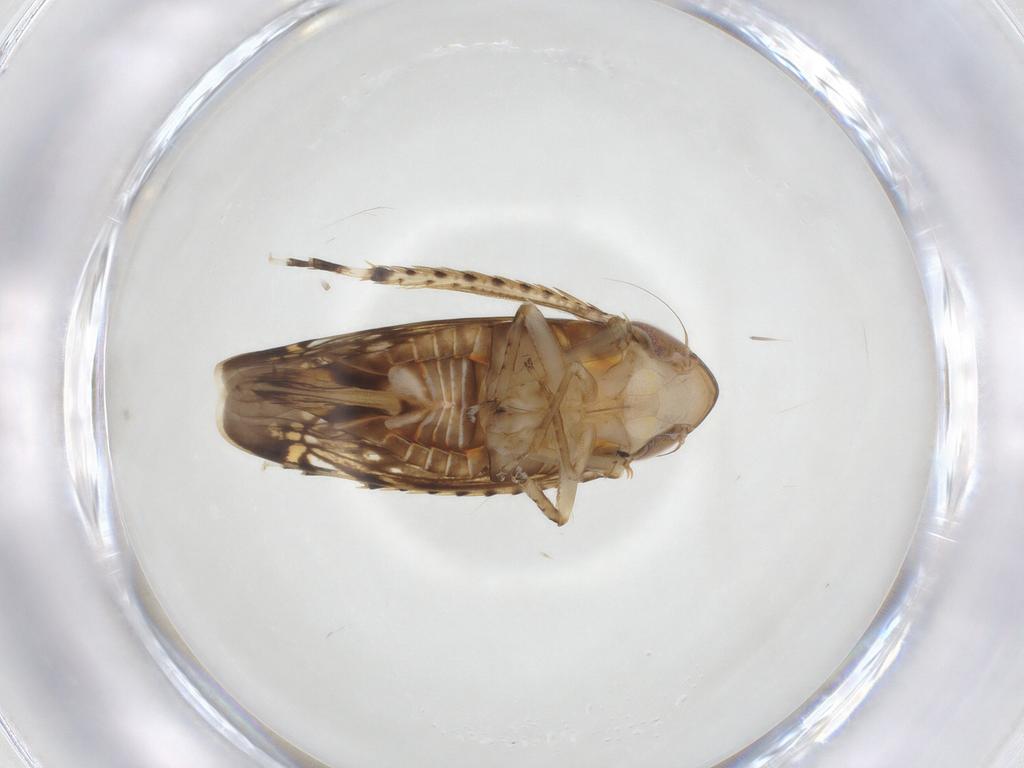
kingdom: Animalia
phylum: Arthropoda
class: Insecta
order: Hemiptera
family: Cicadellidae
